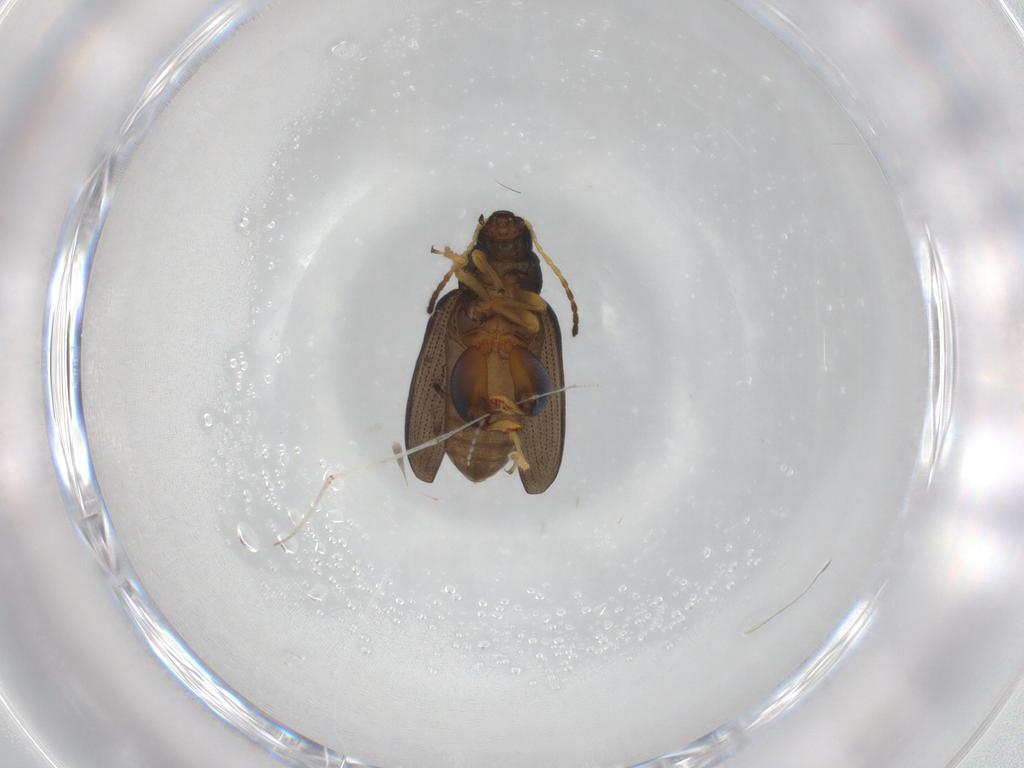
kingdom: Animalia
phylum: Arthropoda
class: Insecta
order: Coleoptera
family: Chrysomelidae
